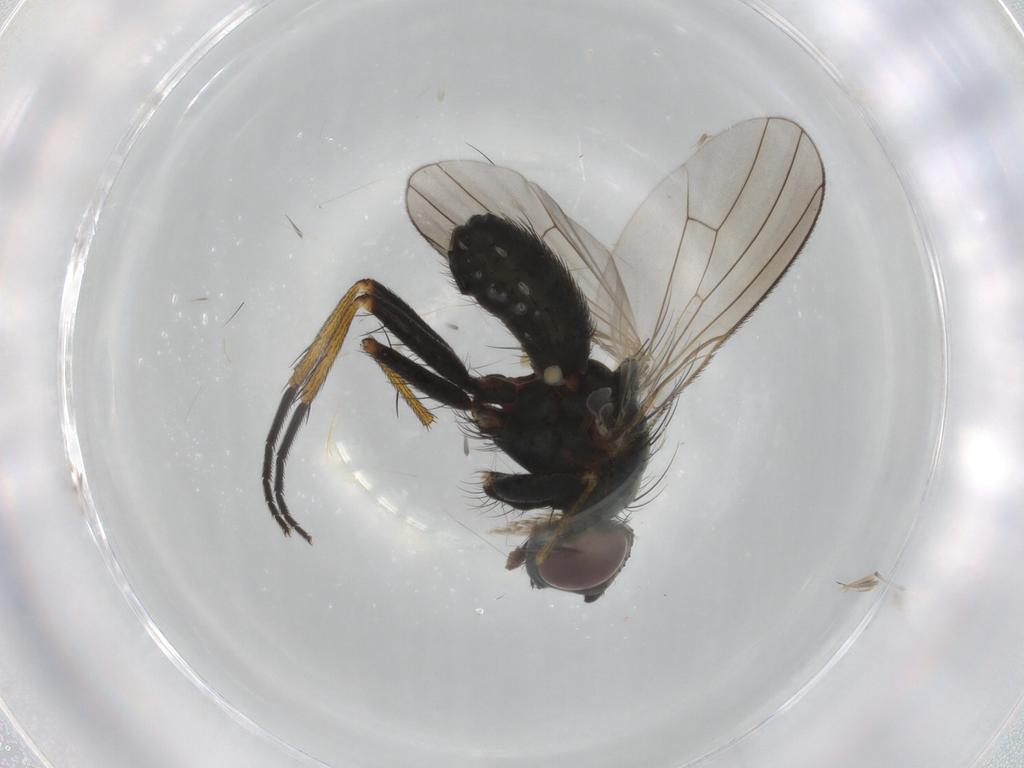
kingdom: Animalia
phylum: Arthropoda
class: Insecta
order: Diptera
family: Muscidae
